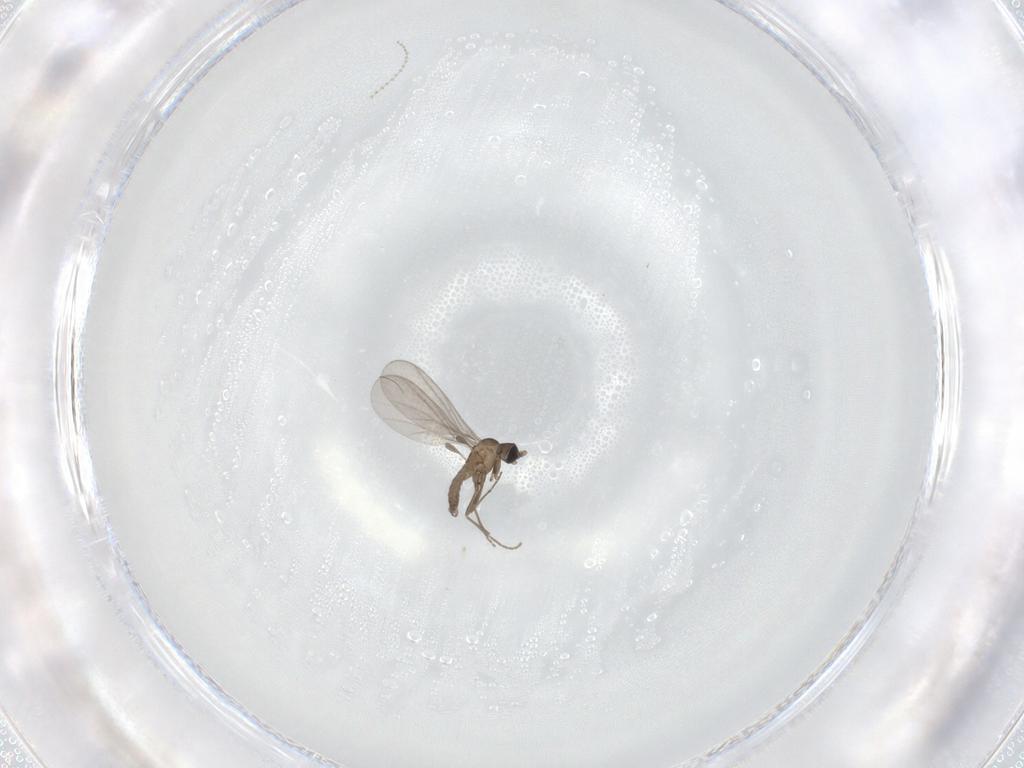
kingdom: Animalia
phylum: Arthropoda
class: Insecta
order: Diptera
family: Sciaridae
